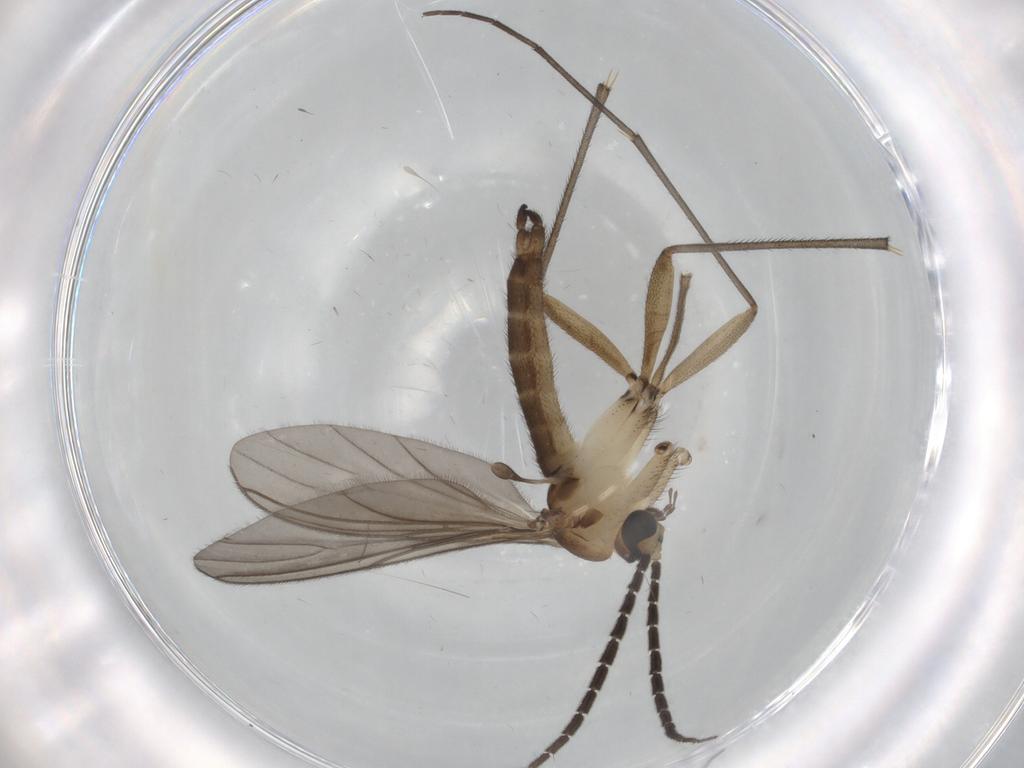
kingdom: Animalia
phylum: Arthropoda
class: Insecta
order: Diptera
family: Sciaridae
